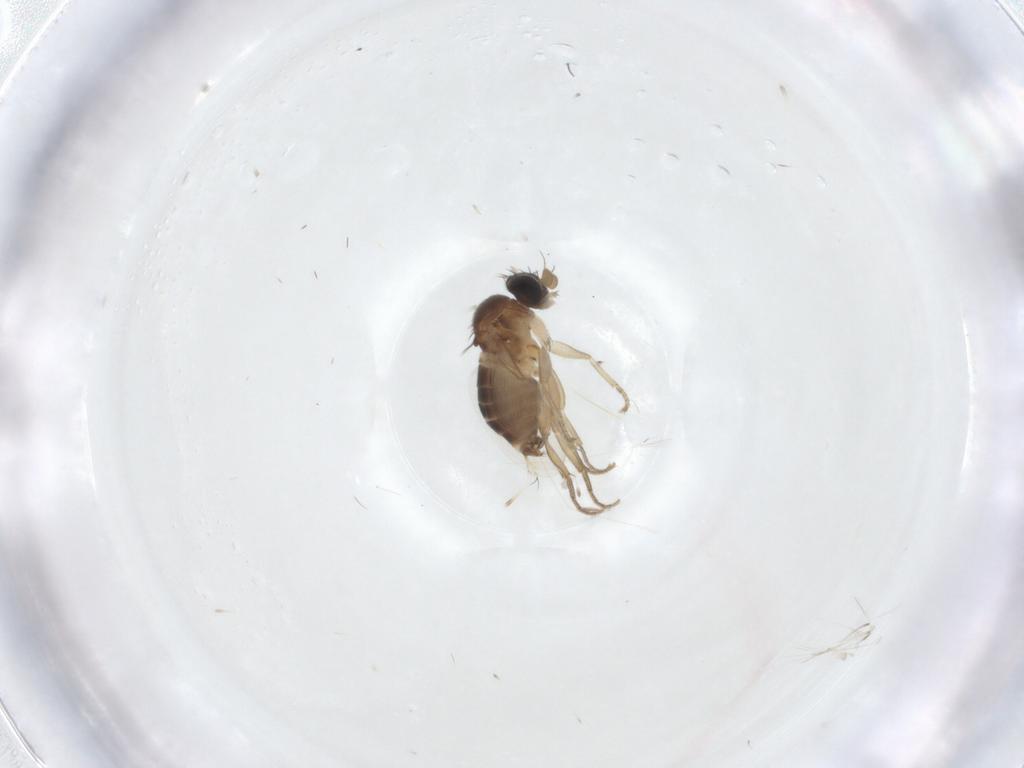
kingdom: Animalia
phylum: Arthropoda
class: Insecta
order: Diptera
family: Phoridae
